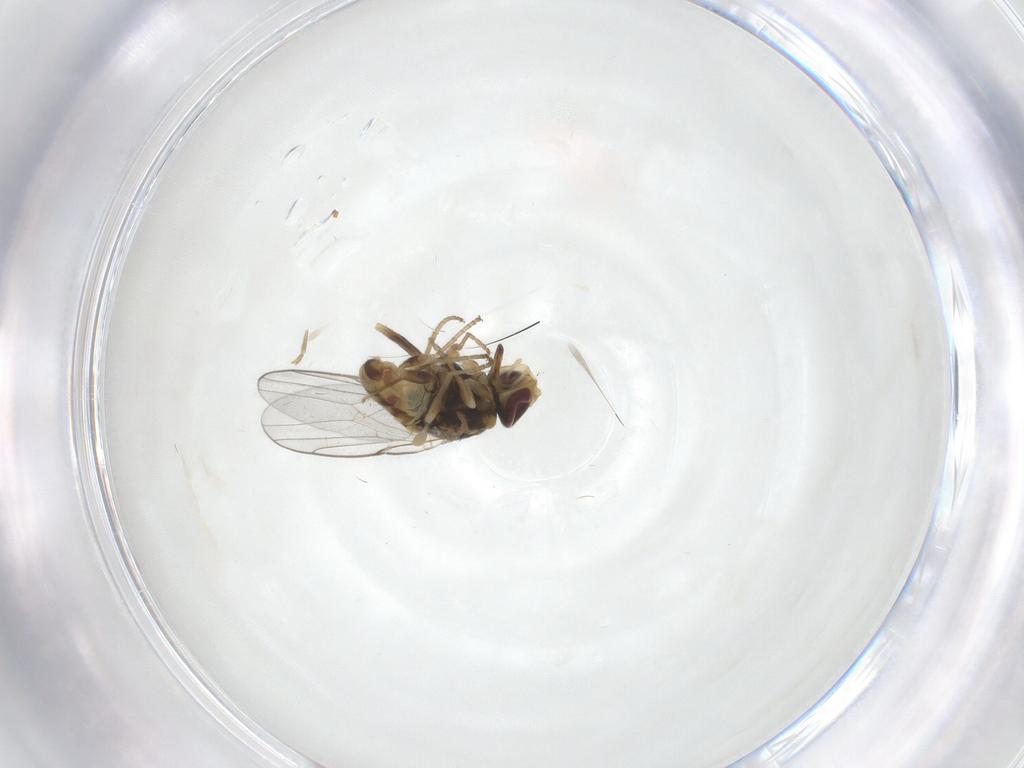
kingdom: Animalia
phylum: Arthropoda
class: Insecta
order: Diptera
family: Chloropidae
